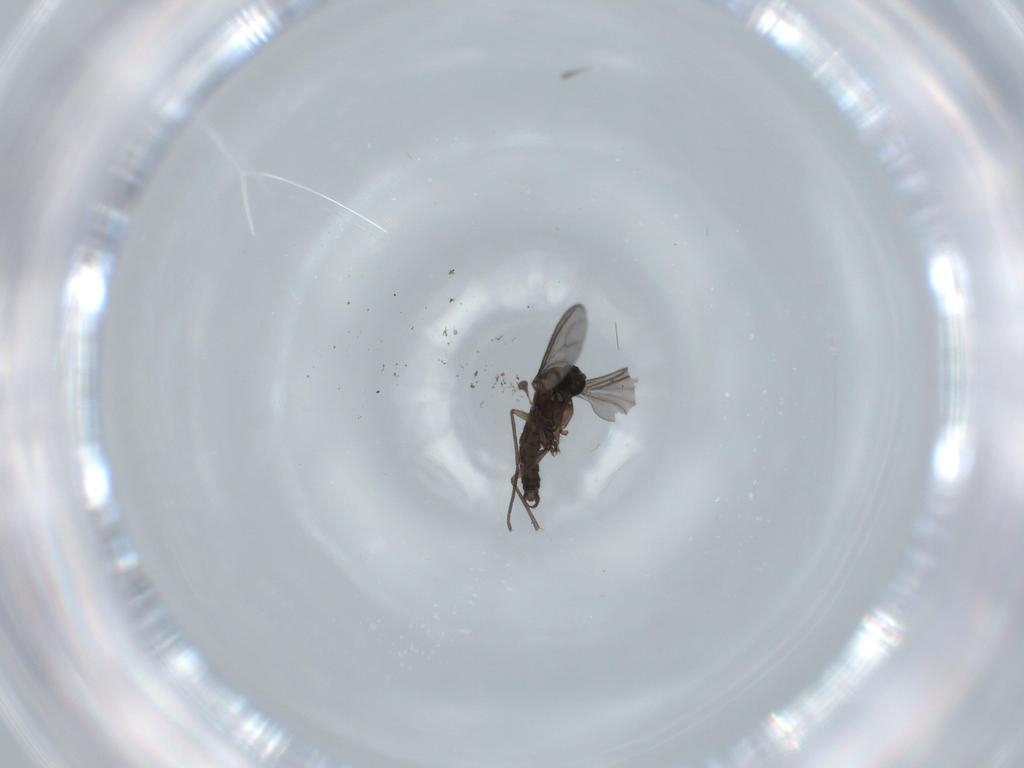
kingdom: Animalia
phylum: Arthropoda
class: Insecta
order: Diptera
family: Sciaridae
